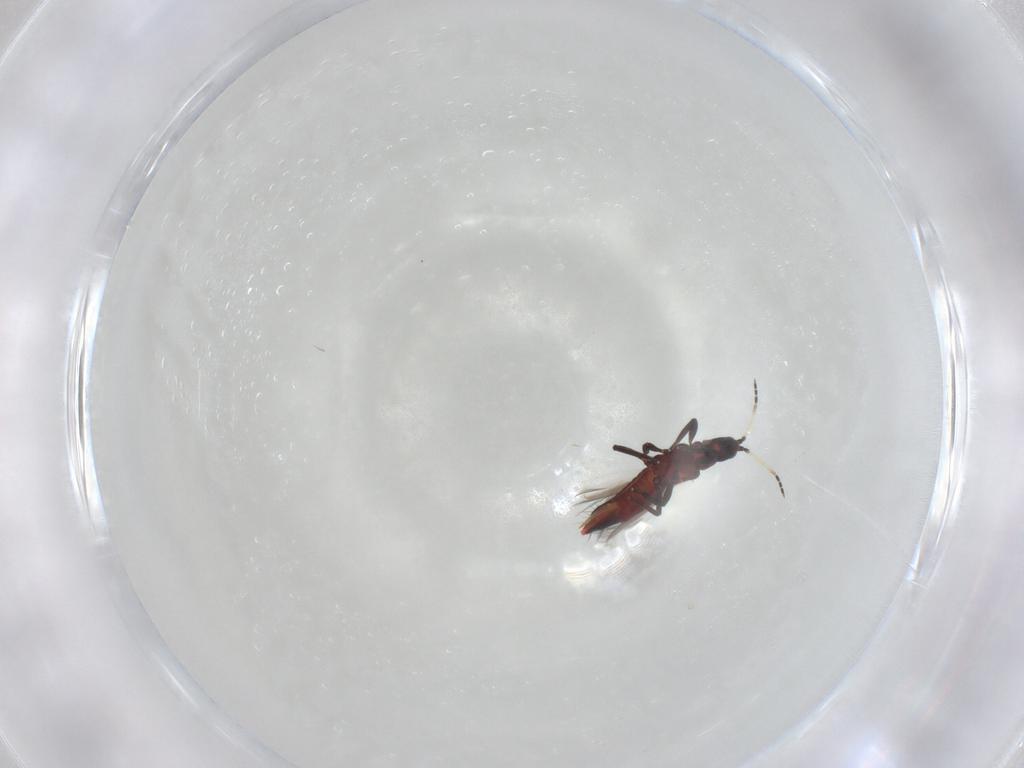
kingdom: Animalia
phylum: Arthropoda
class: Insecta
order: Thysanoptera
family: Aeolothripidae
